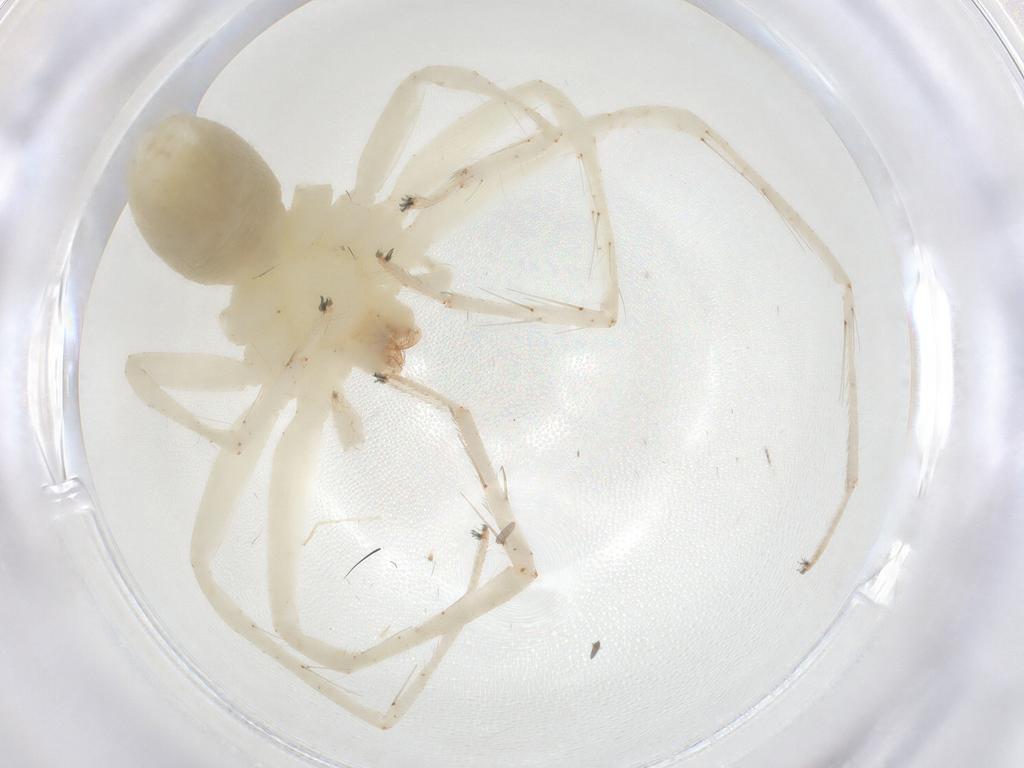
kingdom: Animalia
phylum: Arthropoda
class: Arachnida
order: Araneae
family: Anyphaenidae
